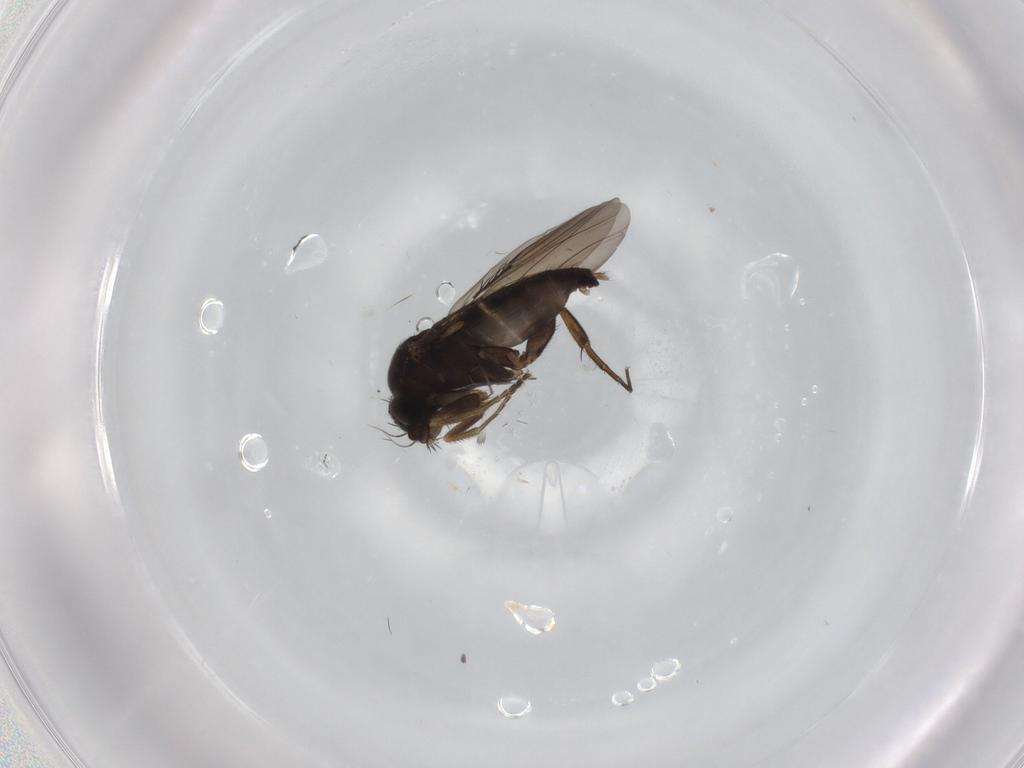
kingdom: Animalia
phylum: Arthropoda
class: Insecta
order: Diptera
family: Phoridae
